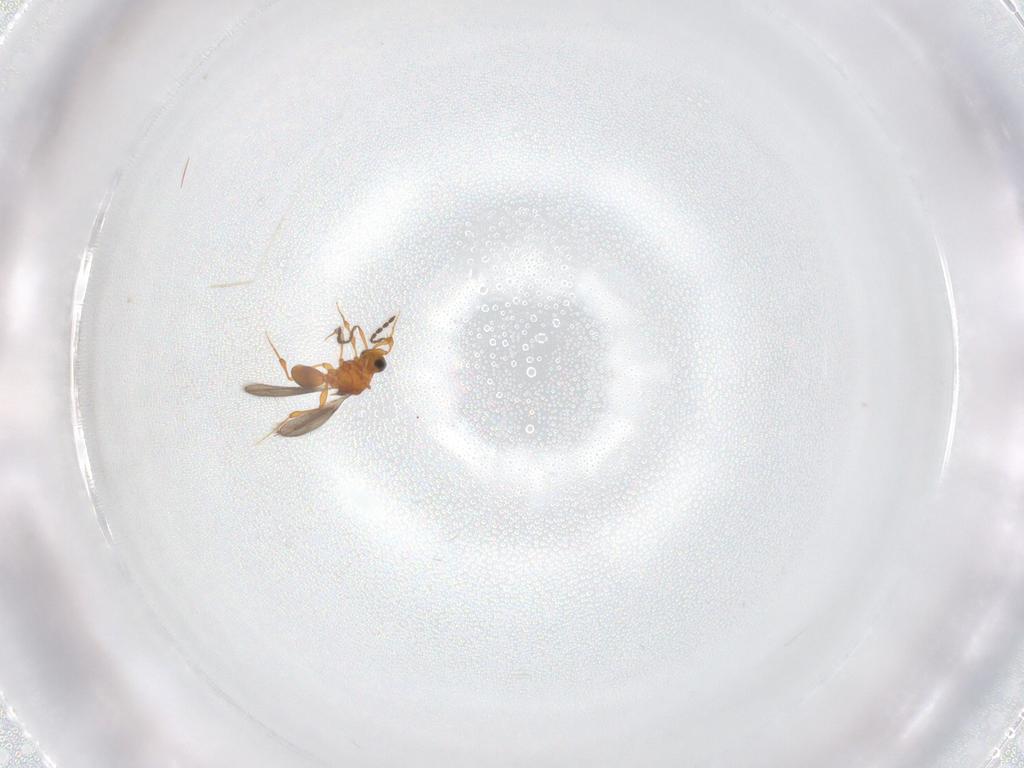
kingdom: Animalia
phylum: Arthropoda
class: Insecta
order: Hymenoptera
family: Platygastridae
